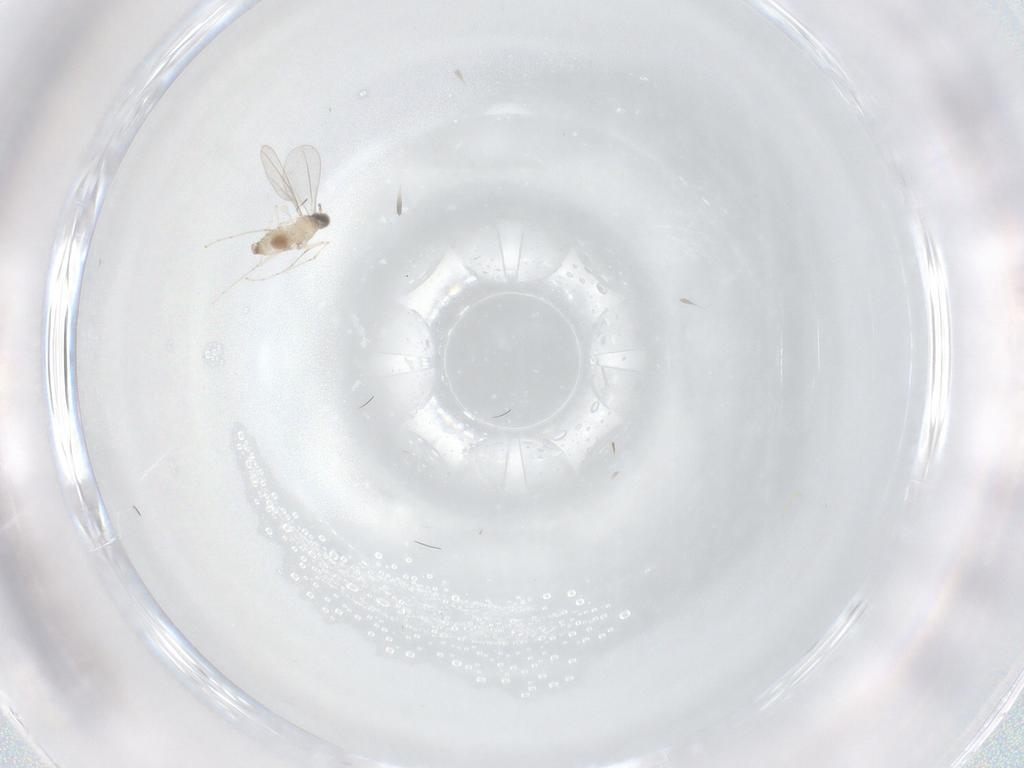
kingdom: Animalia
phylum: Arthropoda
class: Insecta
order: Diptera
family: Cecidomyiidae
